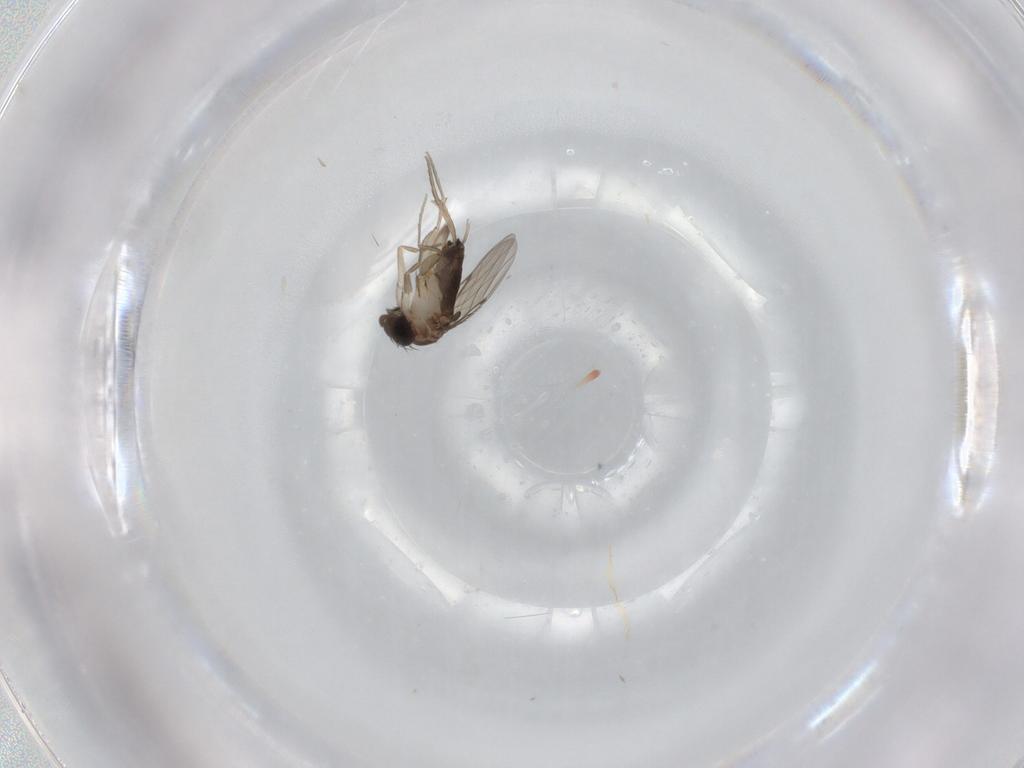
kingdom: Animalia
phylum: Arthropoda
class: Insecta
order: Diptera
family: Phoridae
